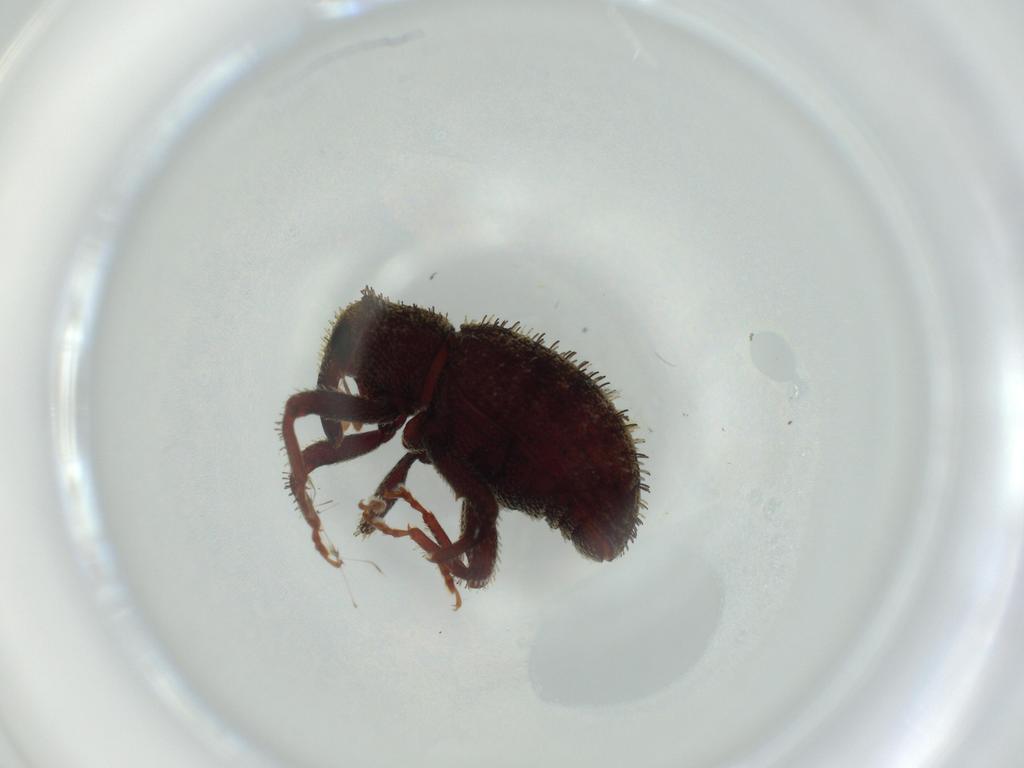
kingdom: Animalia
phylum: Arthropoda
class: Insecta
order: Coleoptera
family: Curculionidae
